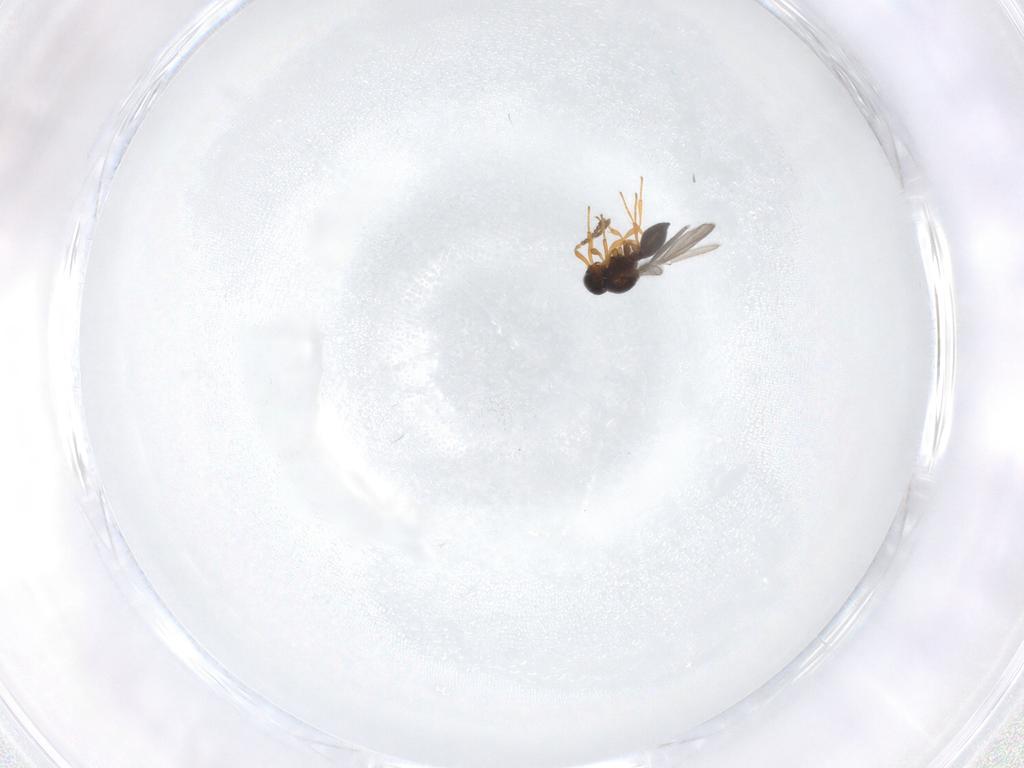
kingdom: Animalia
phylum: Arthropoda
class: Insecta
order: Hymenoptera
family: Platygastridae
